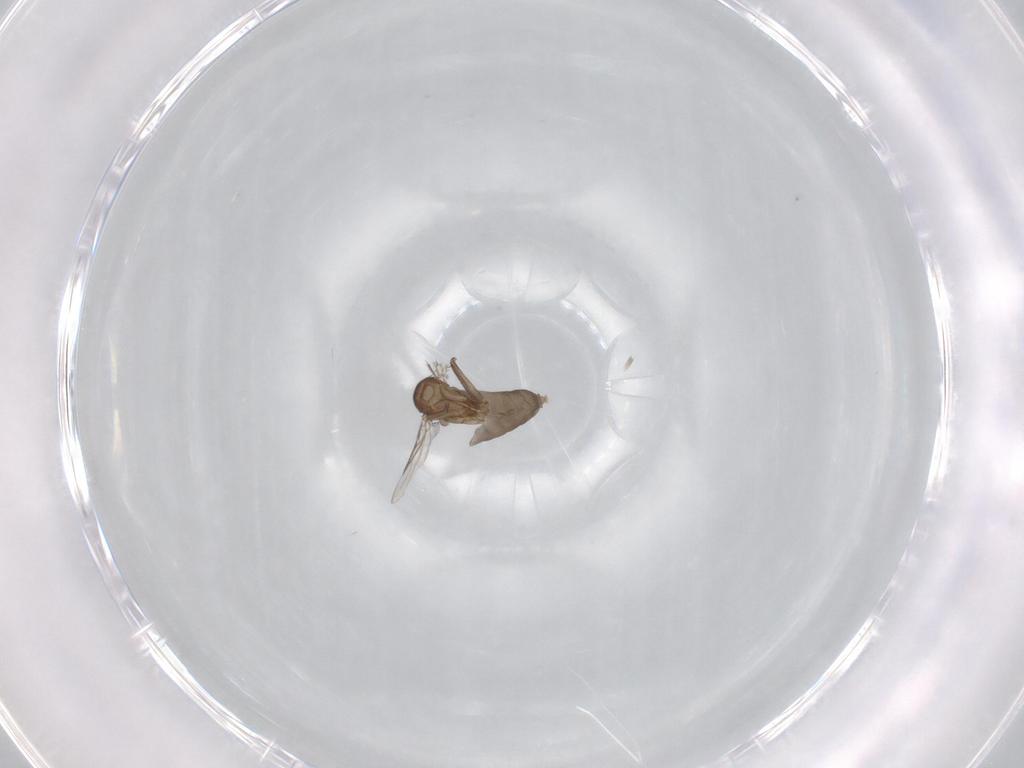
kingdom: Animalia
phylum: Arthropoda
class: Insecta
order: Diptera
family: Phoridae
